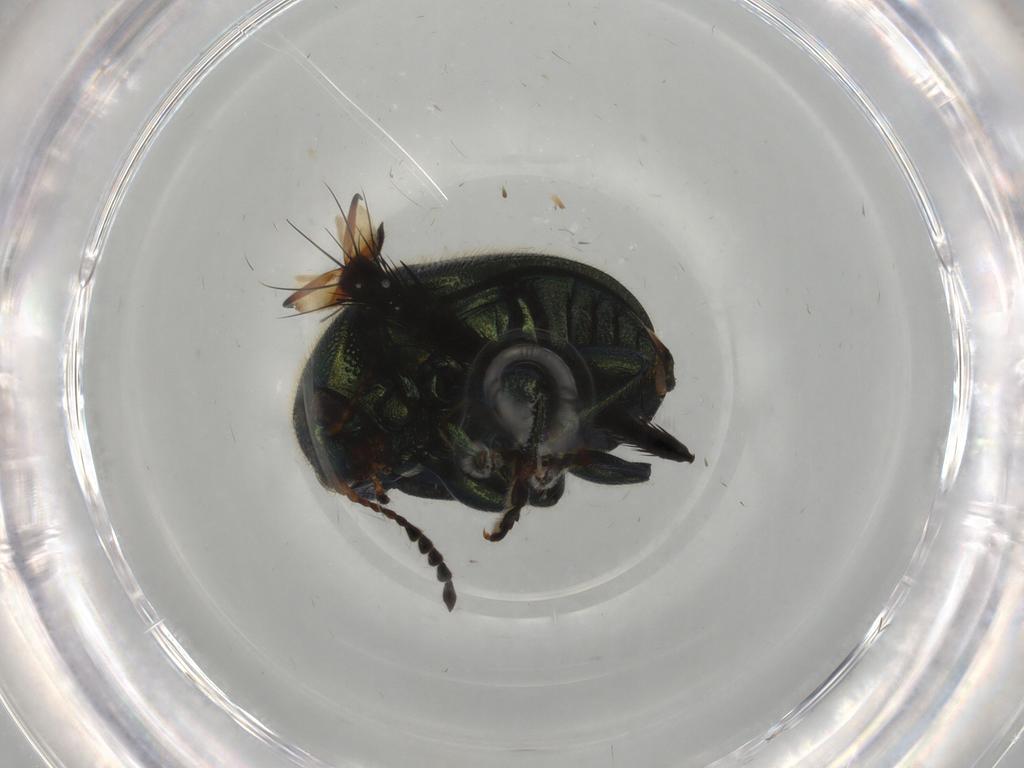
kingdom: Animalia
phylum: Arthropoda
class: Insecta
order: Coleoptera
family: Chrysomelidae
